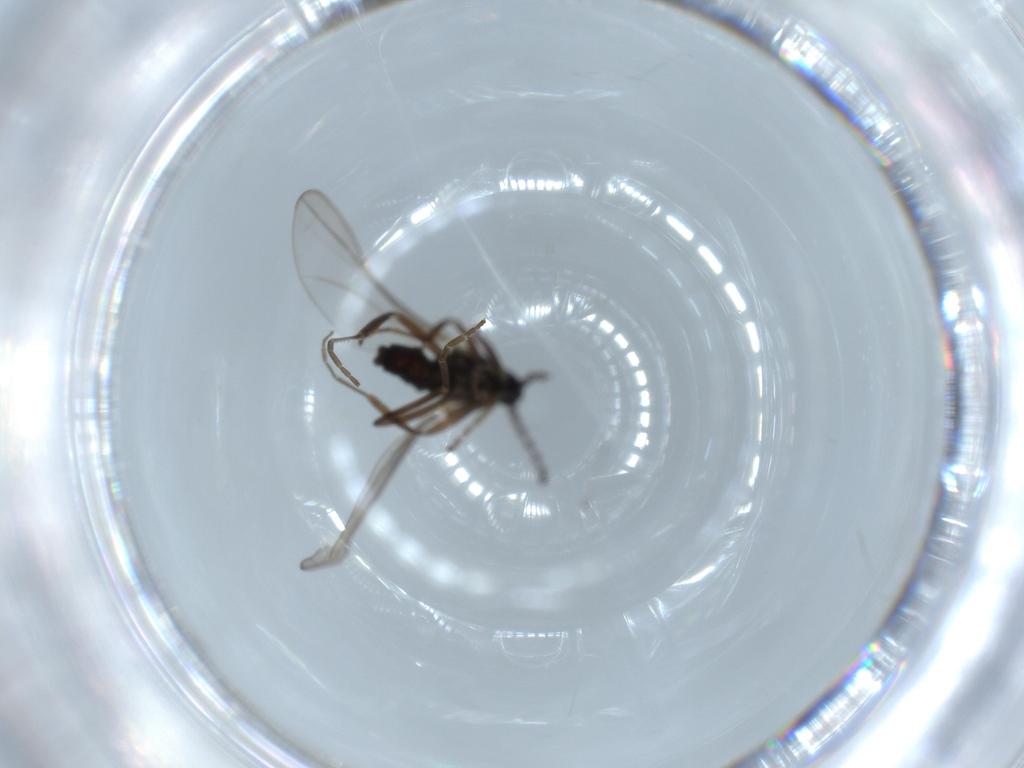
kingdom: Animalia
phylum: Arthropoda
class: Insecta
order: Diptera
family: Cecidomyiidae
